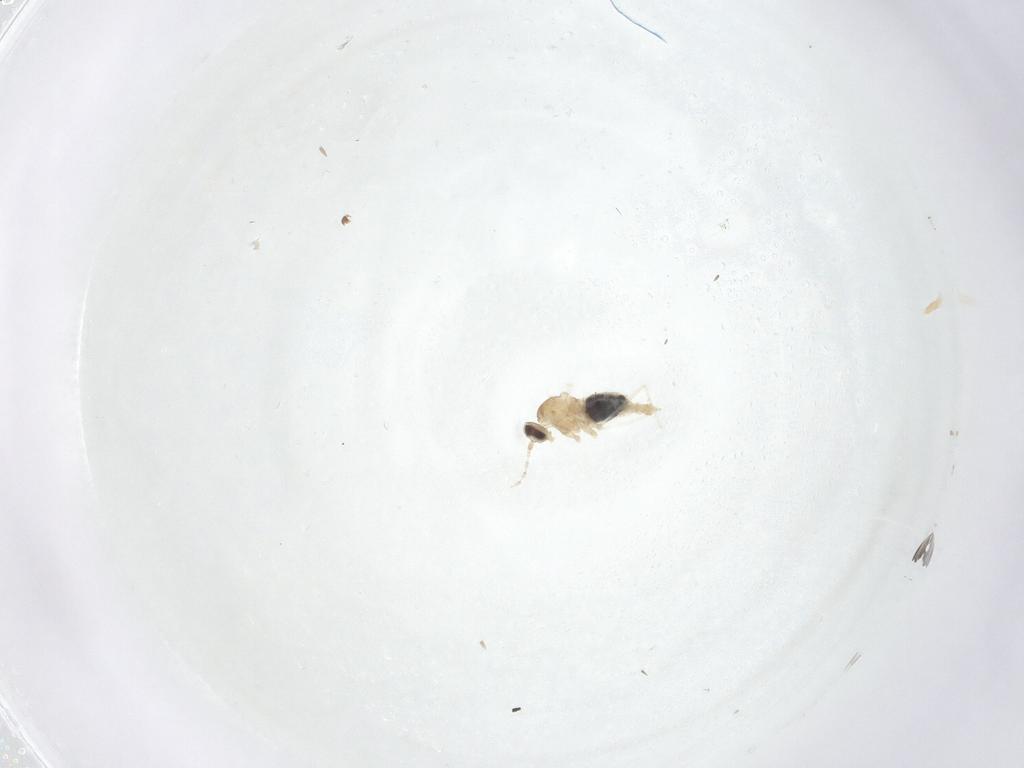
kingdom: Animalia
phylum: Arthropoda
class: Insecta
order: Diptera
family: Cecidomyiidae
